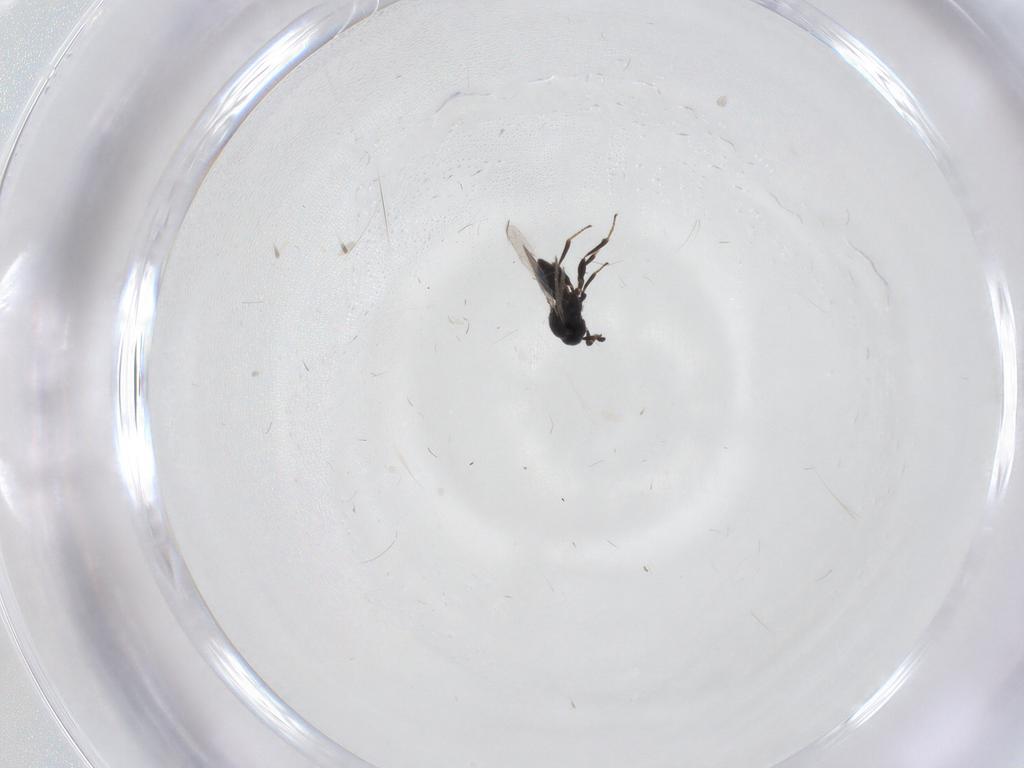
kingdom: Animalia
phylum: Arthropoda
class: Insecta
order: Hymenoptera
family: Platygastridae
